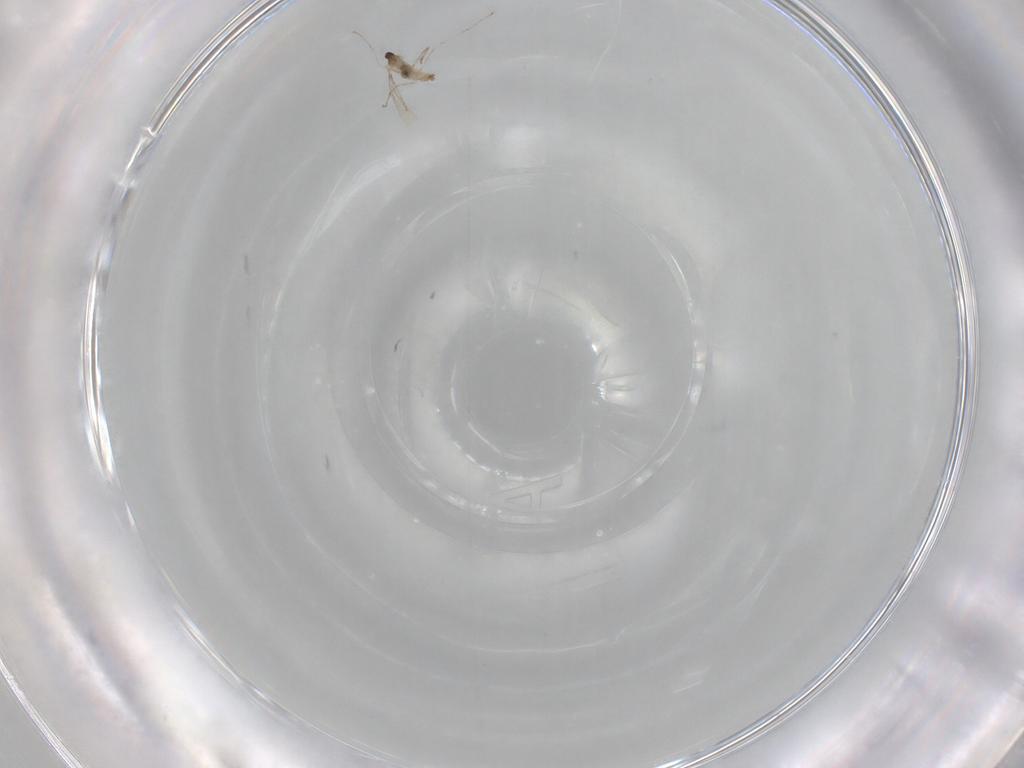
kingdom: Animalia
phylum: Arthropoda
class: Insecta
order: Diptera
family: Cecidomyiidae
